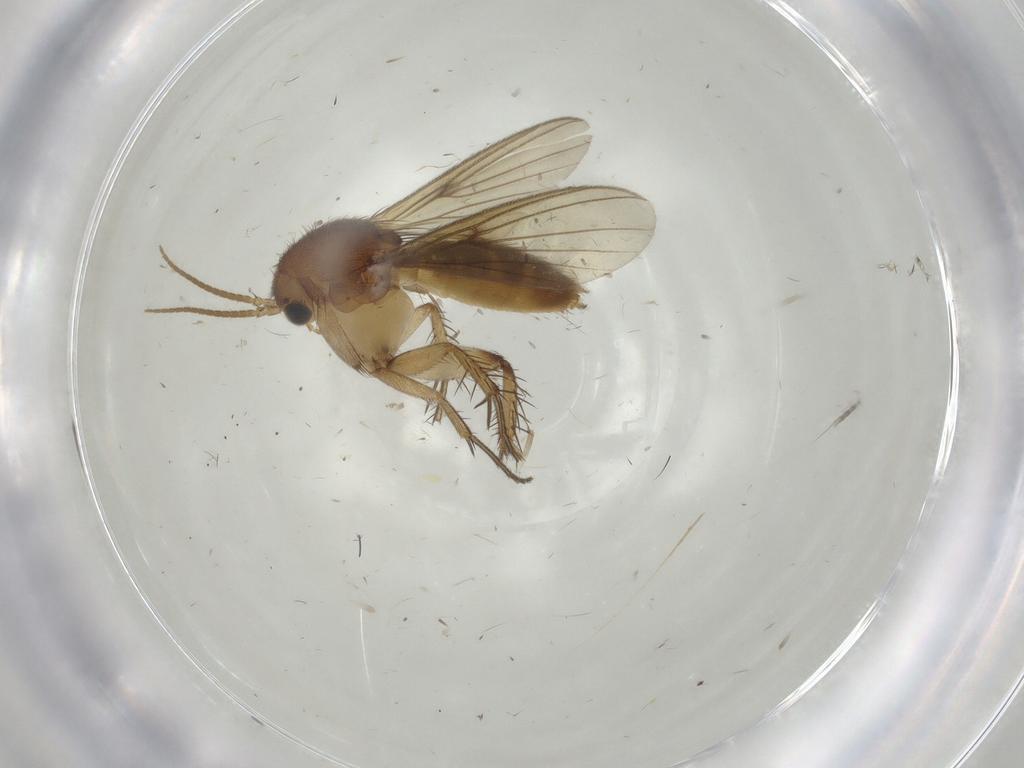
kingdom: Animalia
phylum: Arthropoda
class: Insecta
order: Diptera
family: Mycetophilidae
